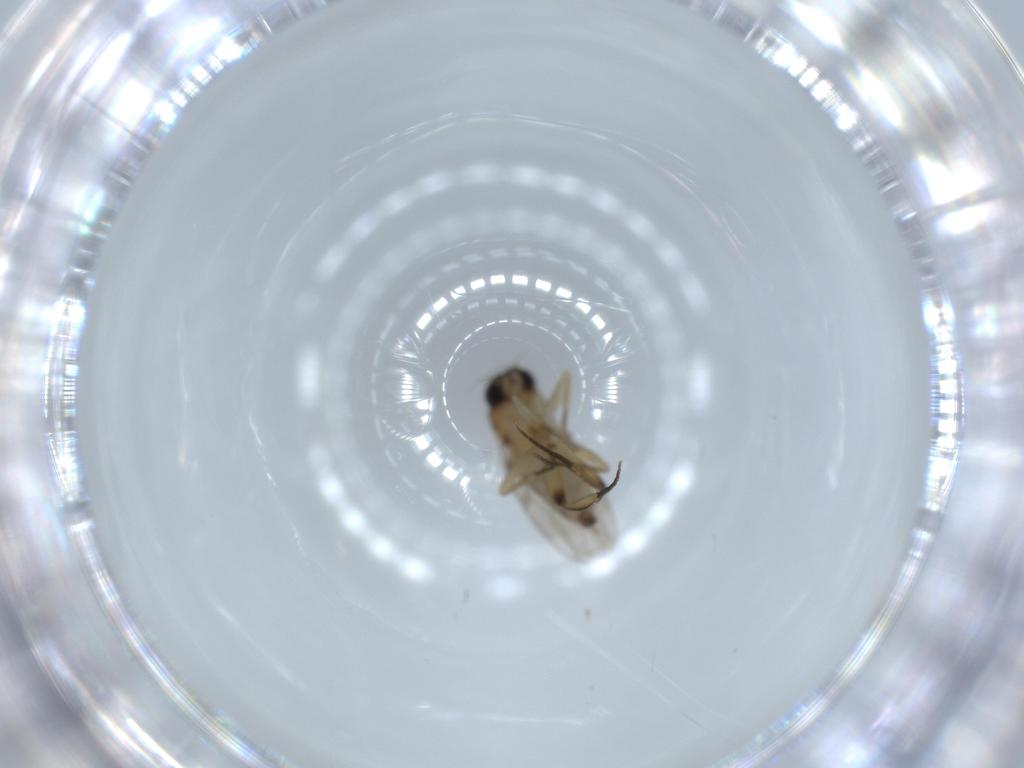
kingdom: Animalia
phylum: Arthropoda
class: Insecta
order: Diptera
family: Phoridae
